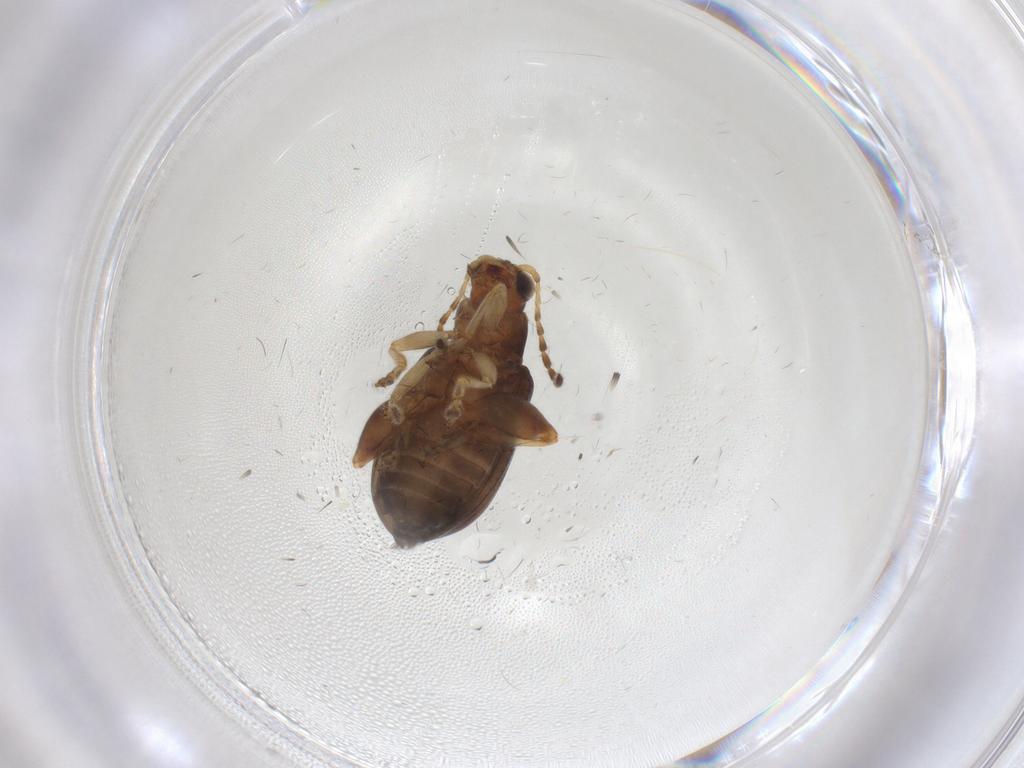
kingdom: Animalia
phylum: Arthropoda
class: Insecta
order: Coleoptera
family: Chrysomelidae
